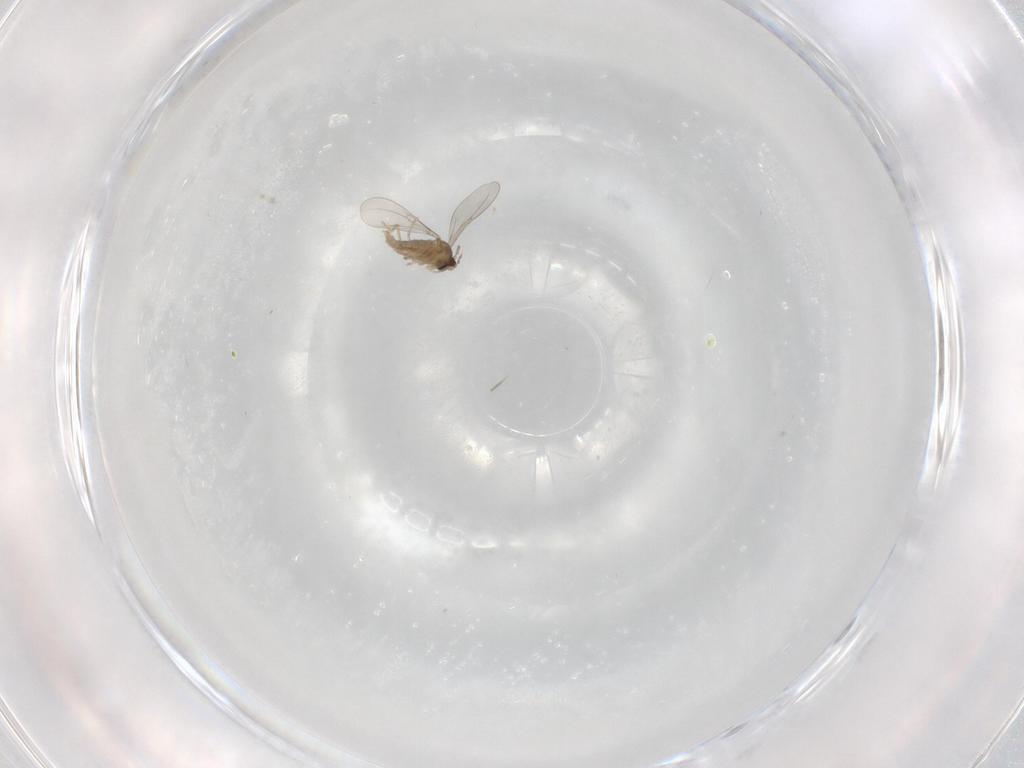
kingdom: Animalia
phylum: Arthropoda
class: Insecta
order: Diptera
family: Cecidomyiidae
